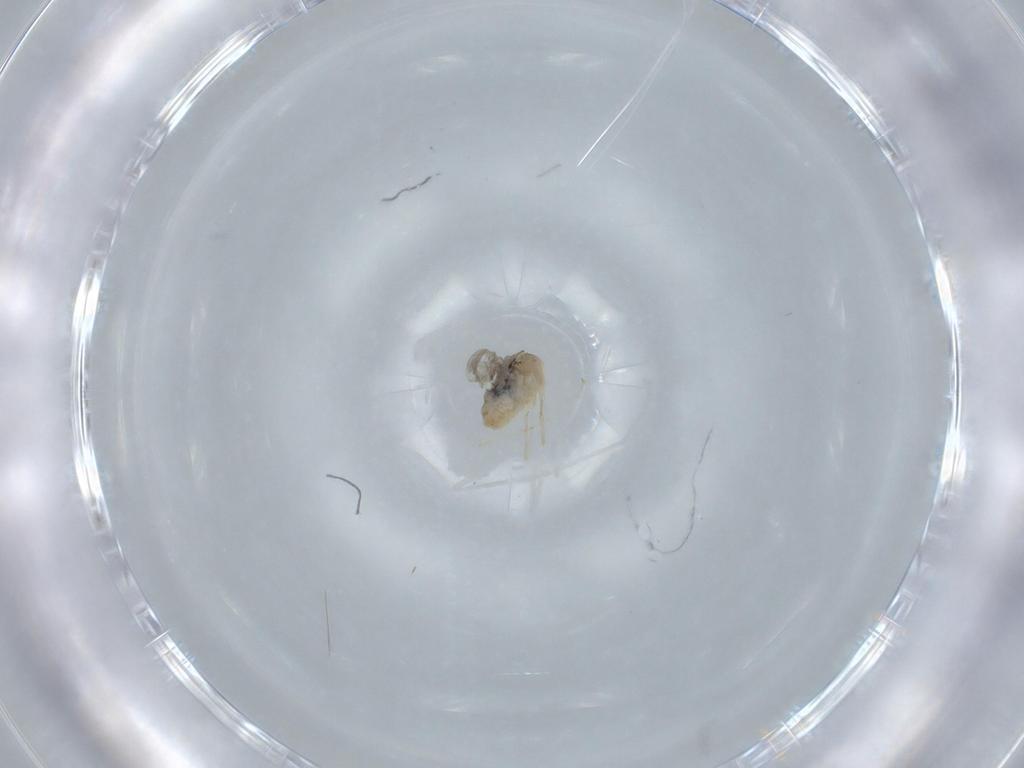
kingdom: Animalia
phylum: Arthropoda
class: Insecta
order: Diptera
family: Cecidomyiidae
